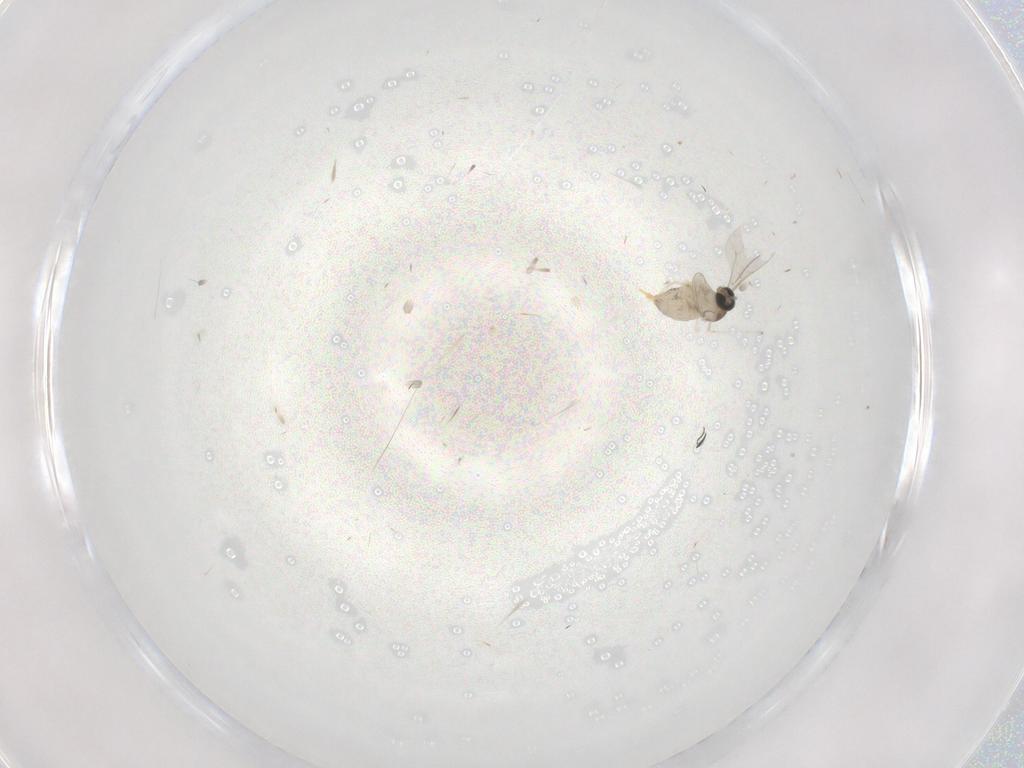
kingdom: Animalia
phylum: Arthropoda
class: Insecta
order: Diptera
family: Cecidomyiidae
